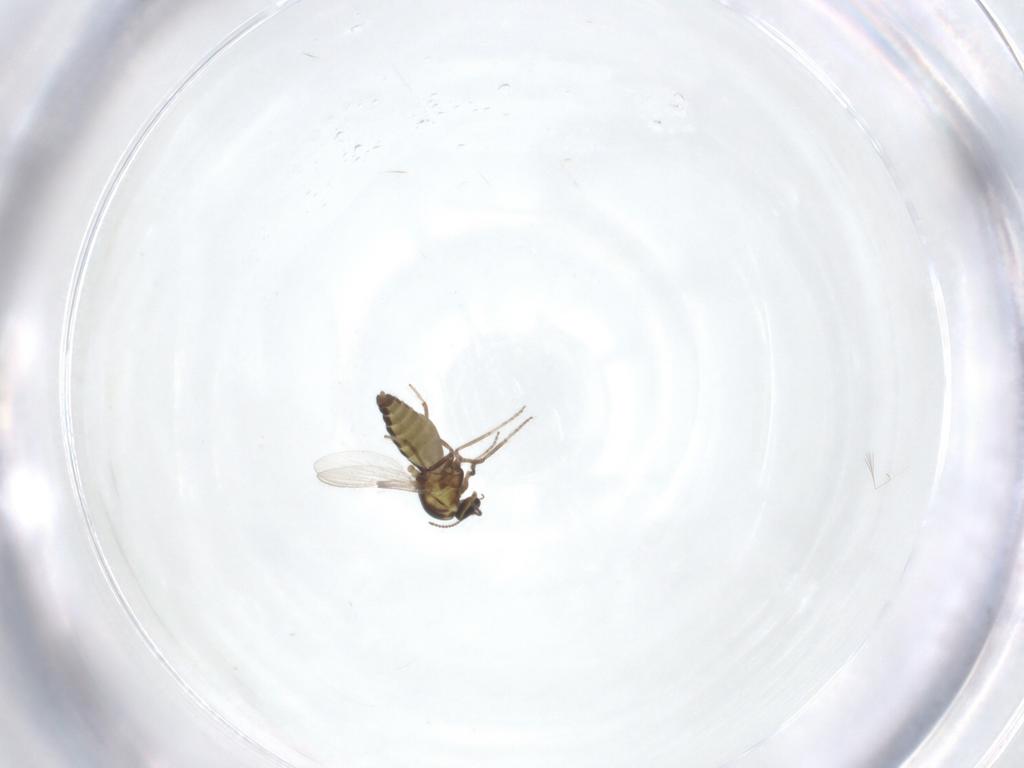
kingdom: Animalia
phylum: Arthropoda
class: Insecta
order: Diptera
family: Ceratopogonidae
